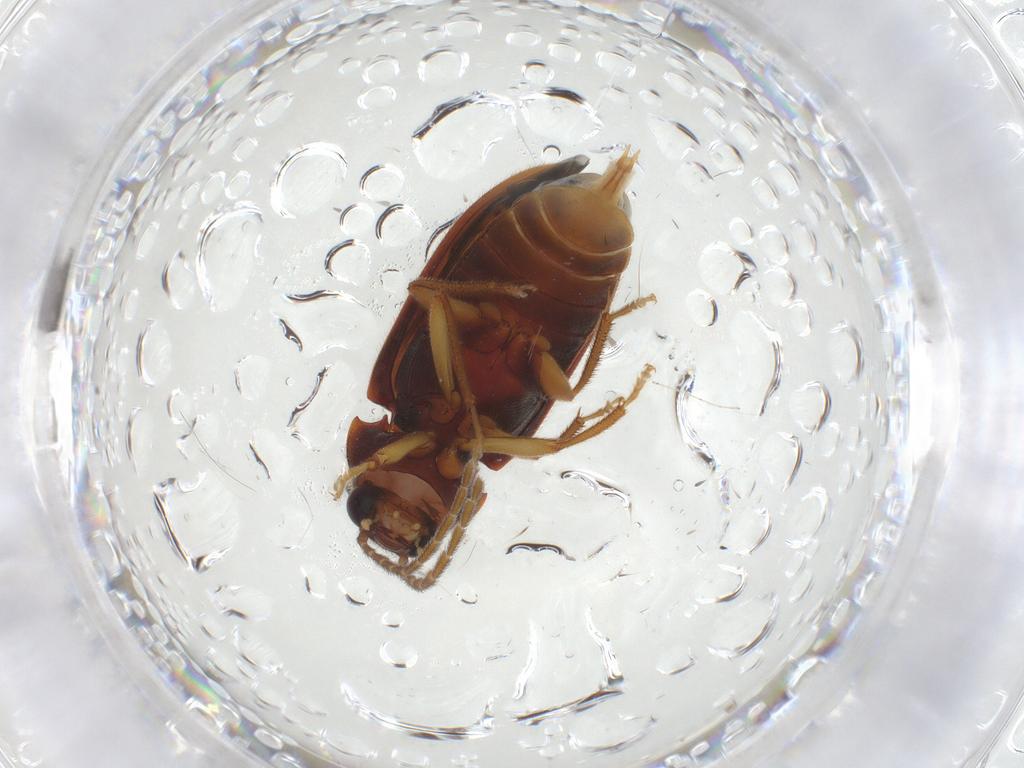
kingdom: Animalia
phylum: Arthropoda
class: Insecta
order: Coleoptera
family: Ptilodactylidae
